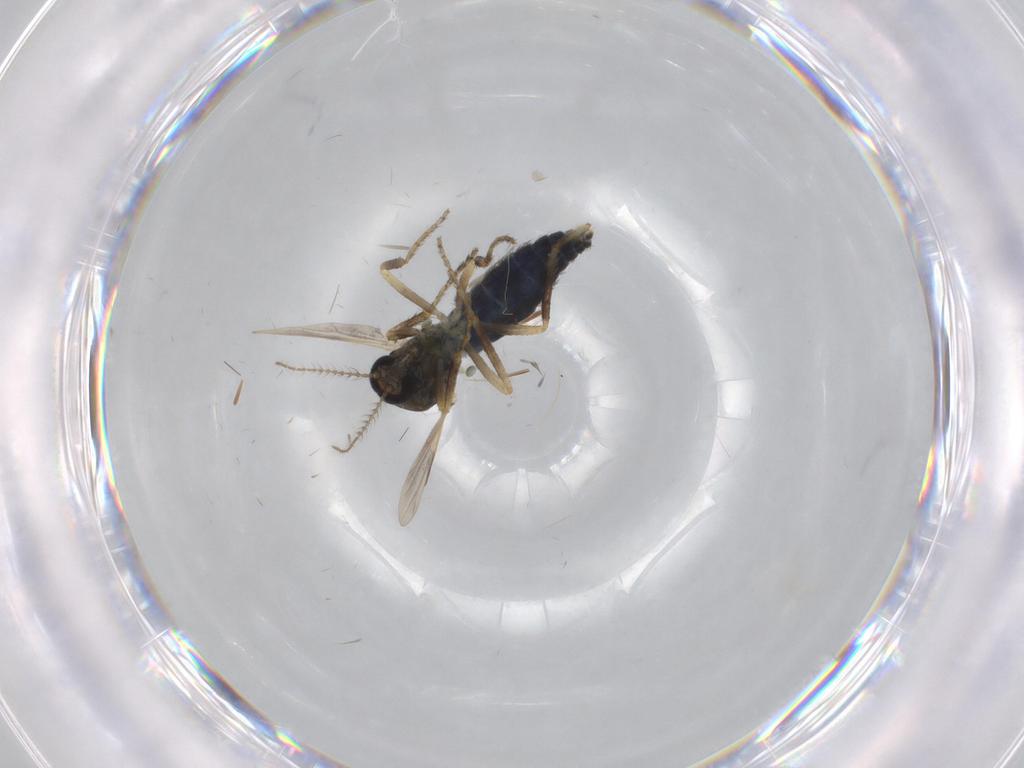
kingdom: Animalia
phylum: Arthropoda
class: Insecta
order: Diptera
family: Ceratopogonidae
